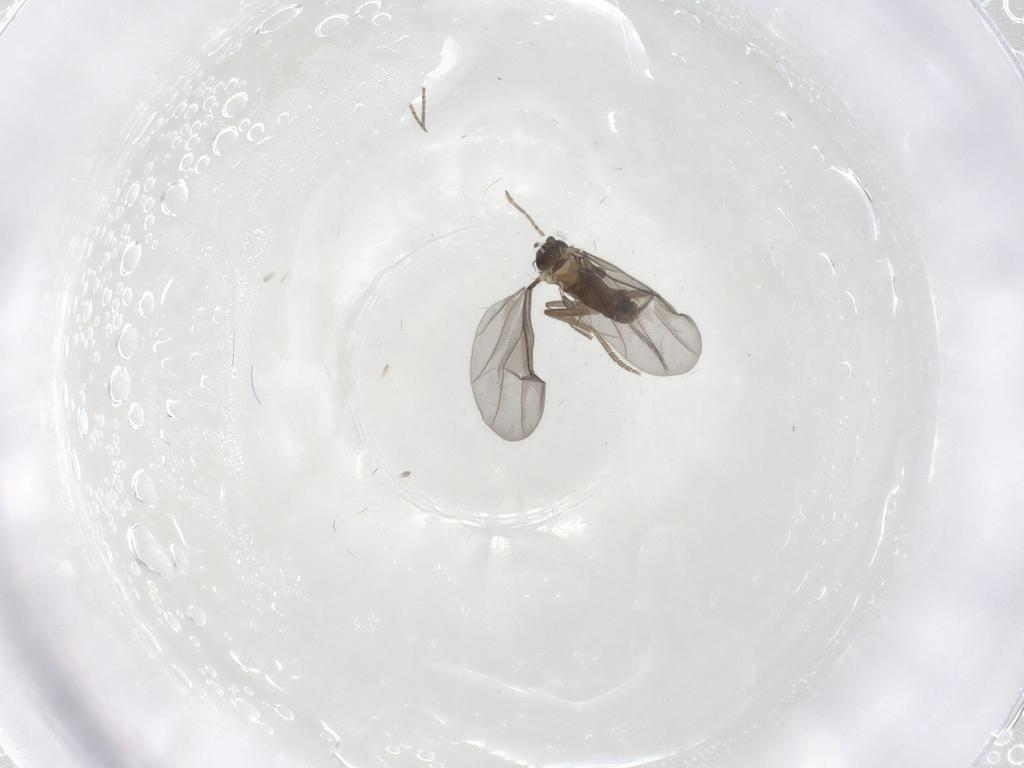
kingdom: Animalia
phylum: Arthropoda
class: Insecta
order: Diptera
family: Phoridae
